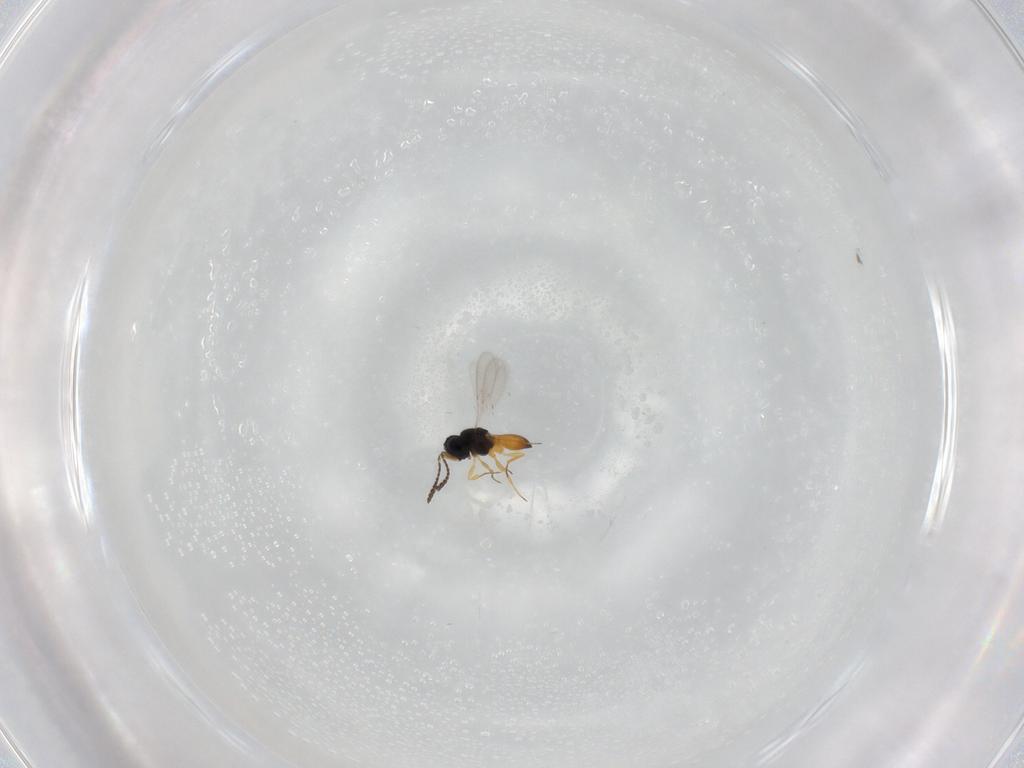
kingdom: Animalia
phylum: Arthropoda
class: Insecta
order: Hymenoptera
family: Scelionidae
